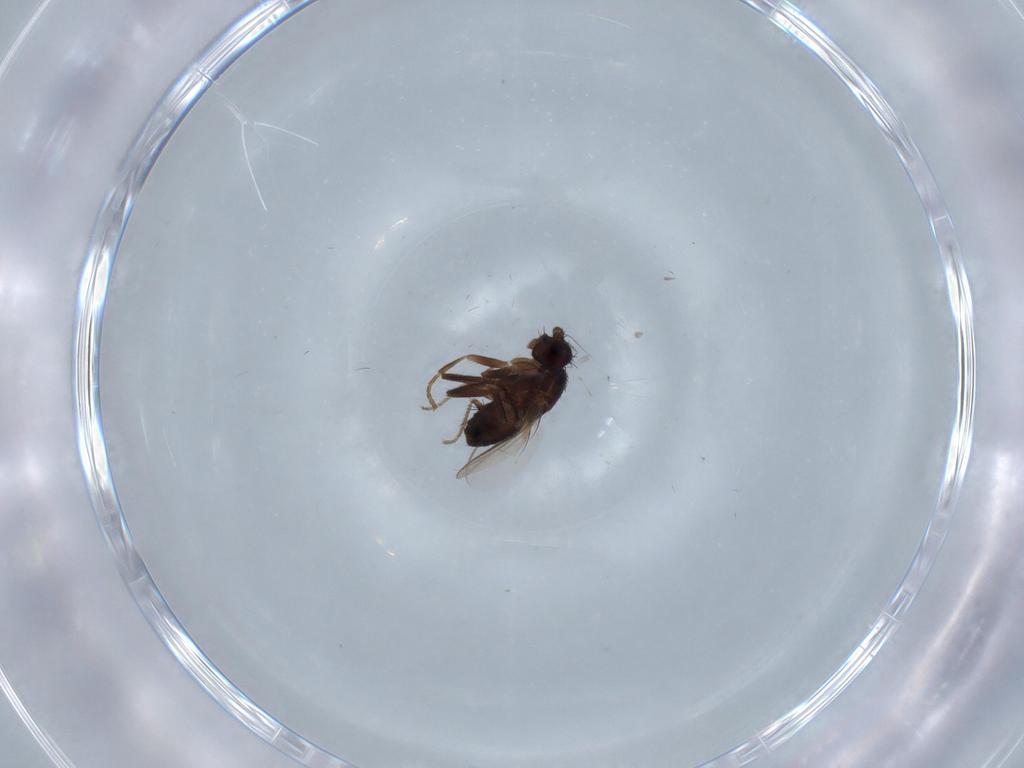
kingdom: Animalia
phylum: Arthropoda
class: Insecta
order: Diptera
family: Sphaeroceridae
